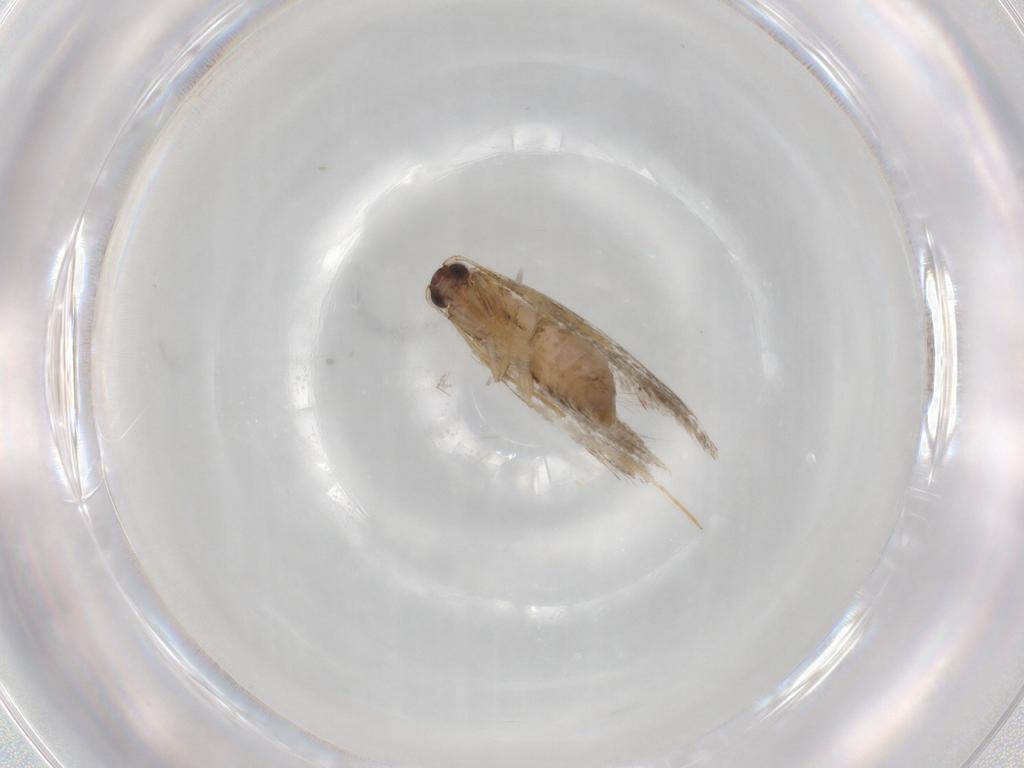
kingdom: Animalia
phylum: Arthropoda
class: Insecta
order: Lepidoptera
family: Tineidae
